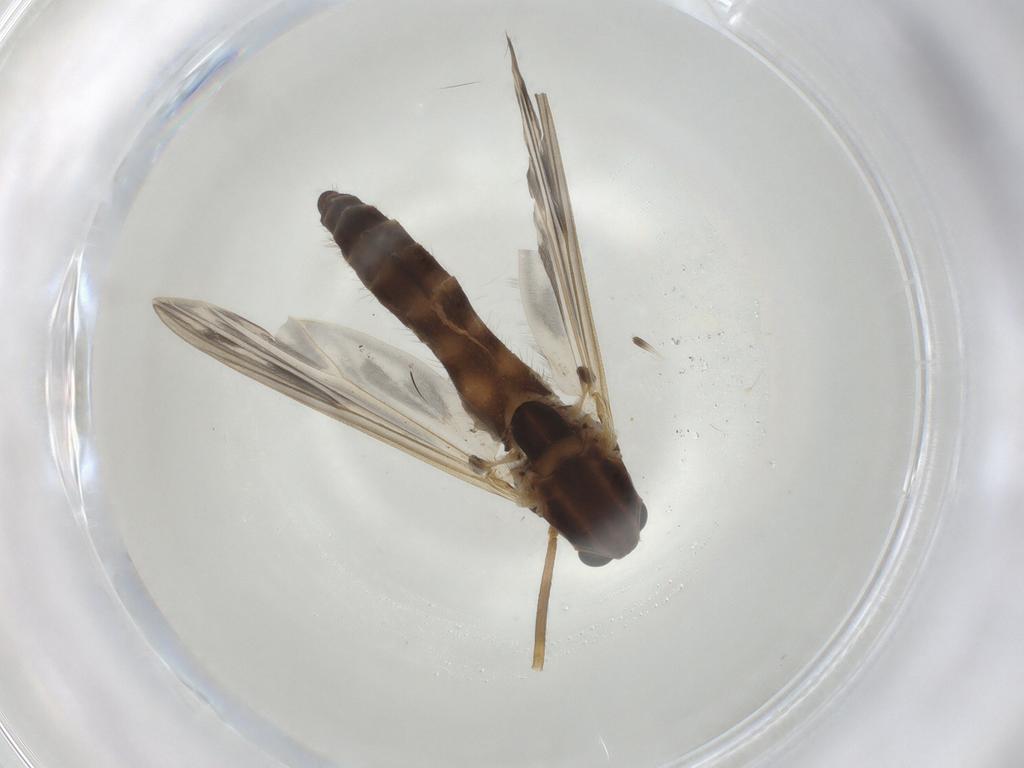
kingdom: Animalia
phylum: Arthropoda
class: Insecta
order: Diptera
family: Chironomidae
